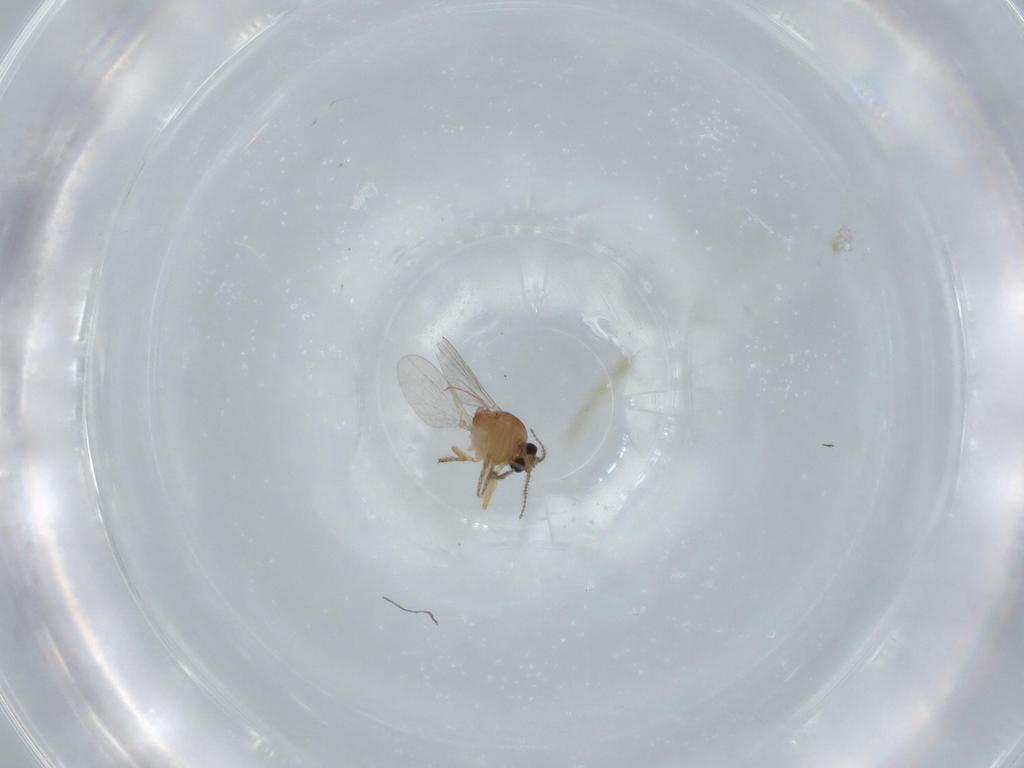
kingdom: Animalia
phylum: Arthropoda
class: Insecta
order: Diptera
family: Ceratopogonidae
